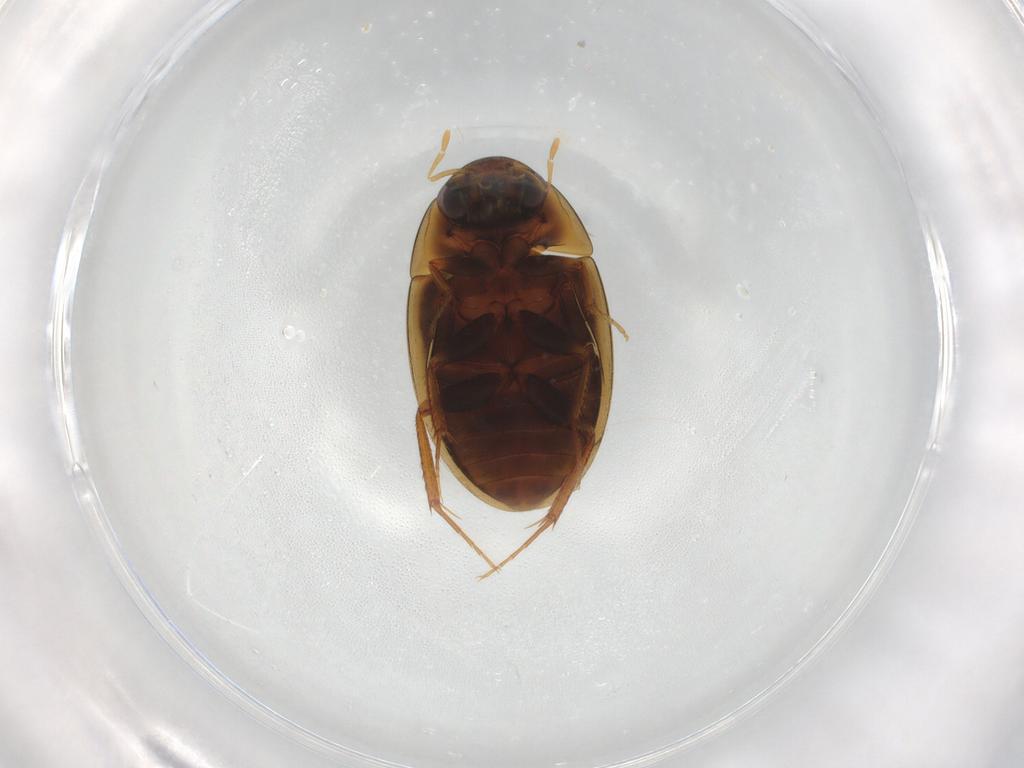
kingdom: Animalia
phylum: Arthropoda
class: Insecta
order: Coleoptera
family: Hydrophilidae
